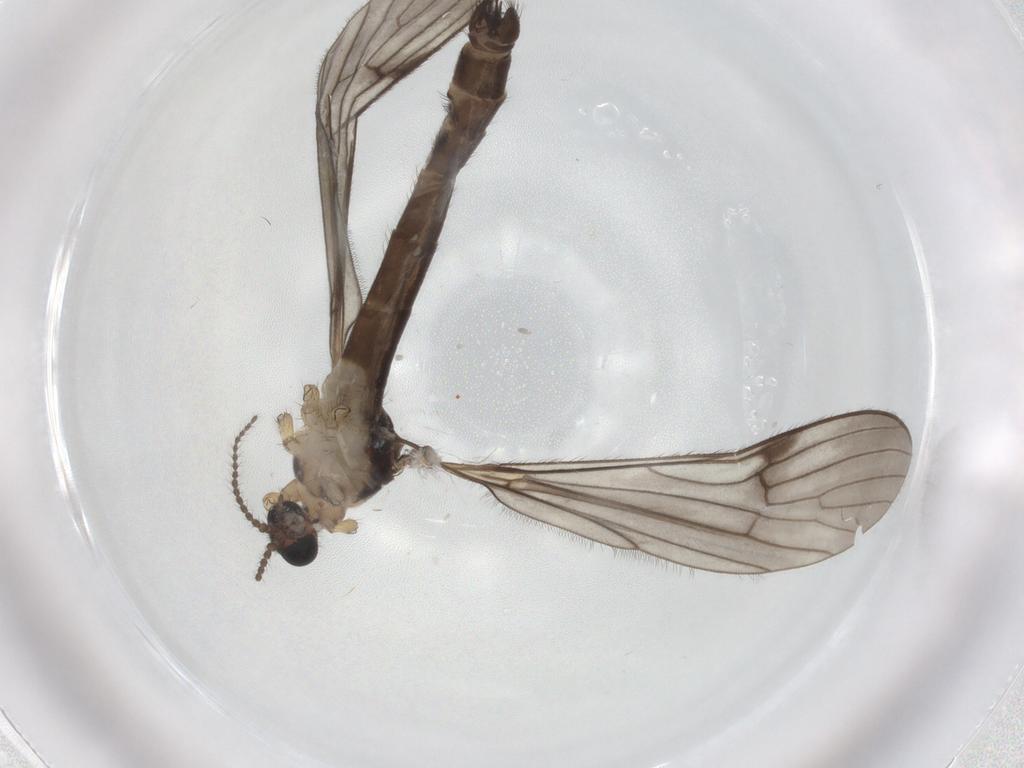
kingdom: Animalia
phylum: Arthropoda
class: Insecta
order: Diptera
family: Limoniidae
